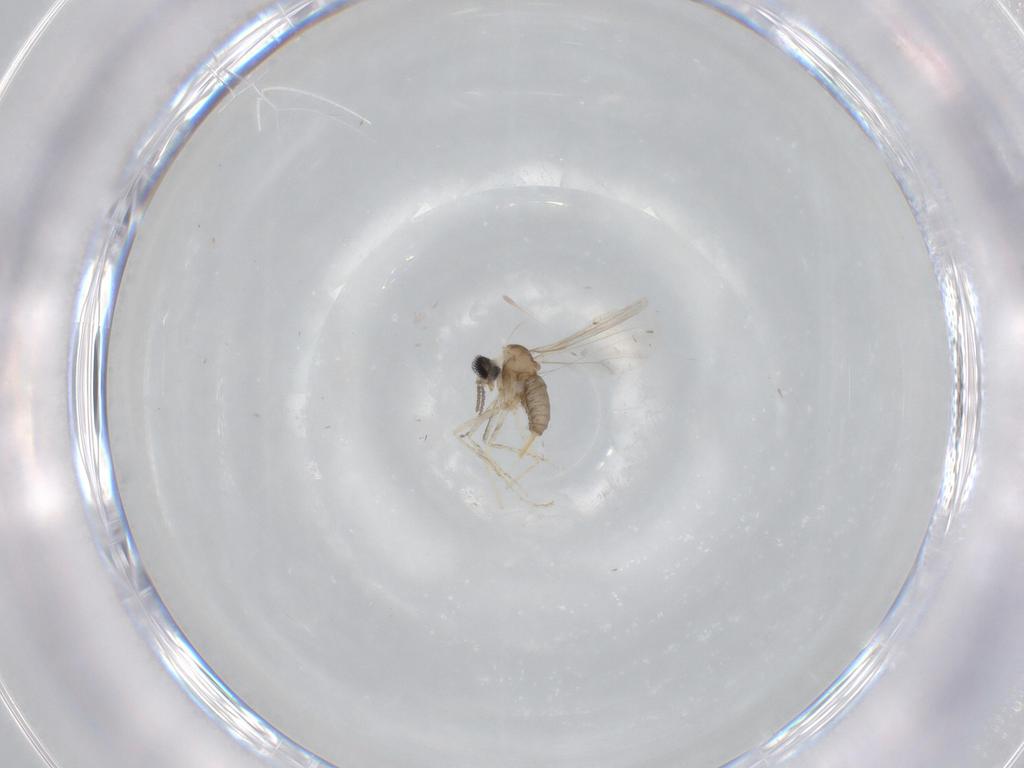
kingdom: Animalia
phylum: Arthropoda
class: Insecta
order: Diptera
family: Cecidomyiidae
